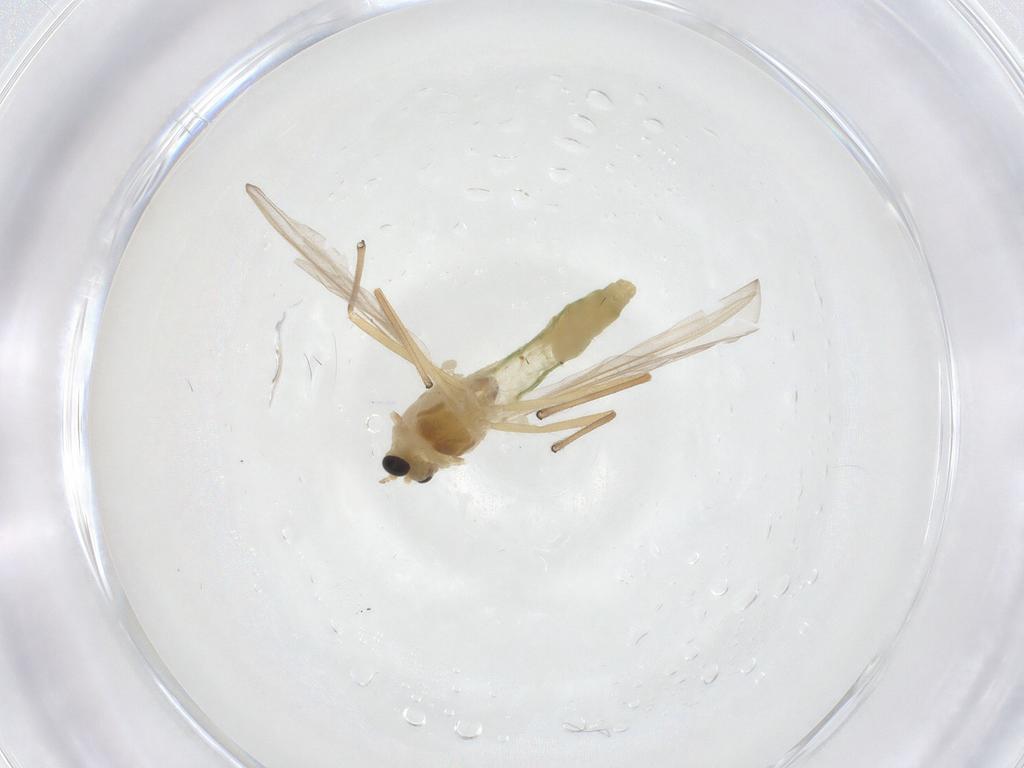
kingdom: Animalia
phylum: Arthropoda
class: Insecta
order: Diptera
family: Chironomidae
